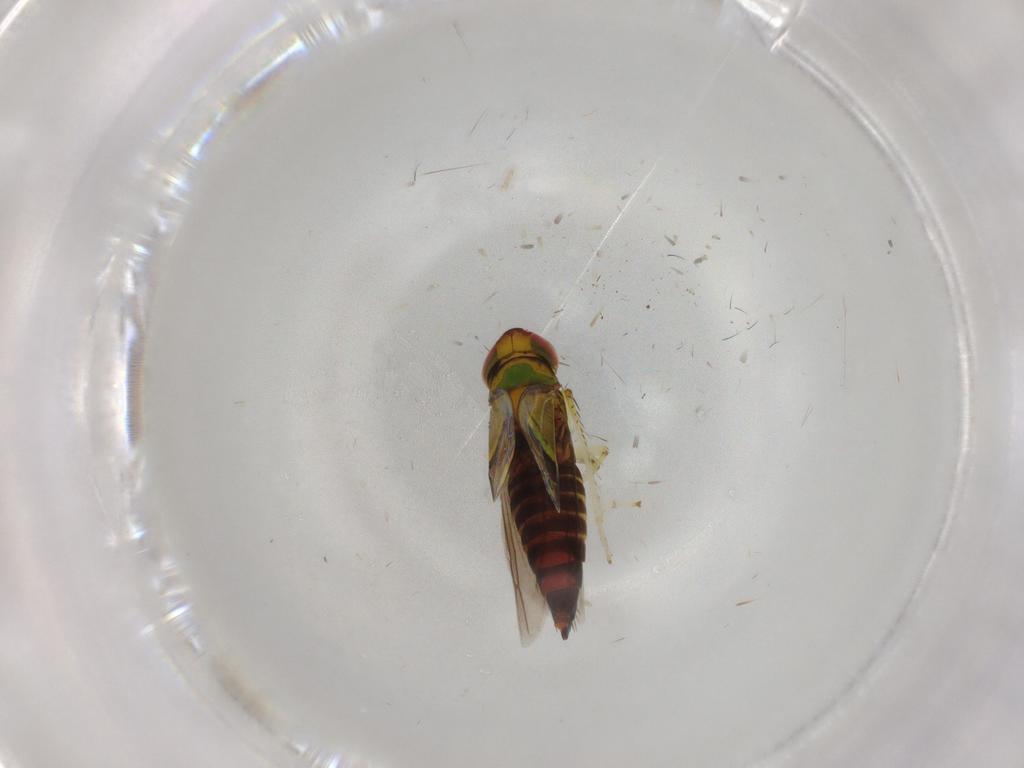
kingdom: Animalia
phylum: Arthropoda
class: Insecta
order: Hemiptera
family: Cicadellidae
